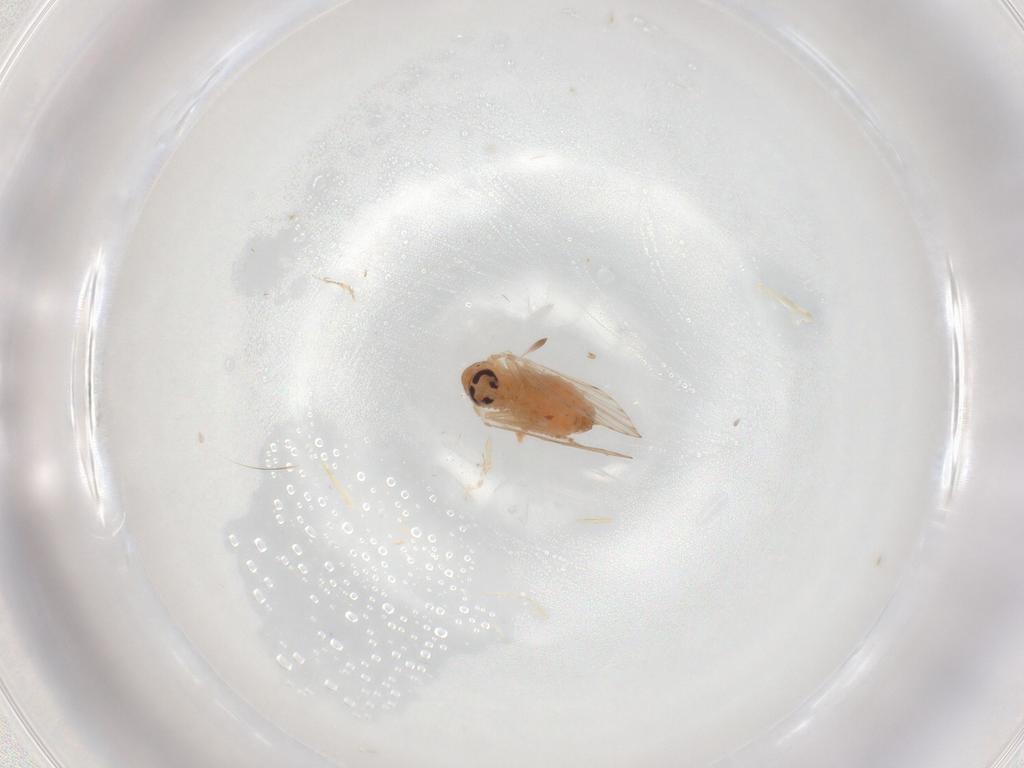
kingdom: Animalia
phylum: Arthropoda
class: Insecta
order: Diptera
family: Psychodidae
